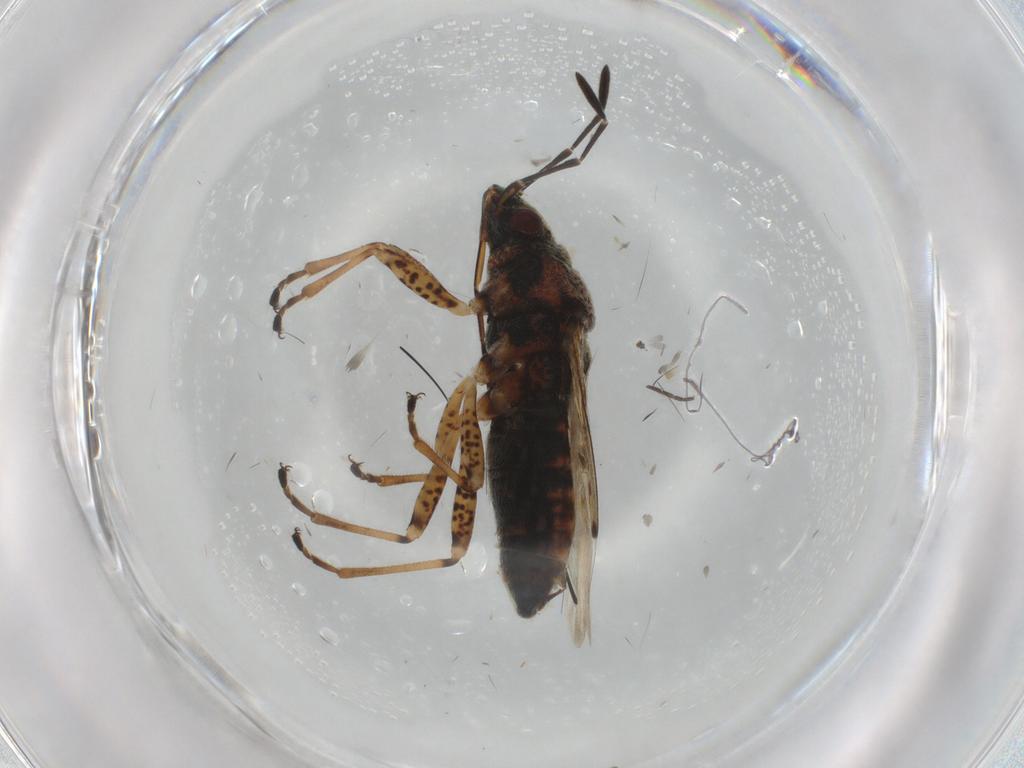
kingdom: Animalia
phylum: Arthropoda
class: Insecta
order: Hemiptera
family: Lygaeidae
